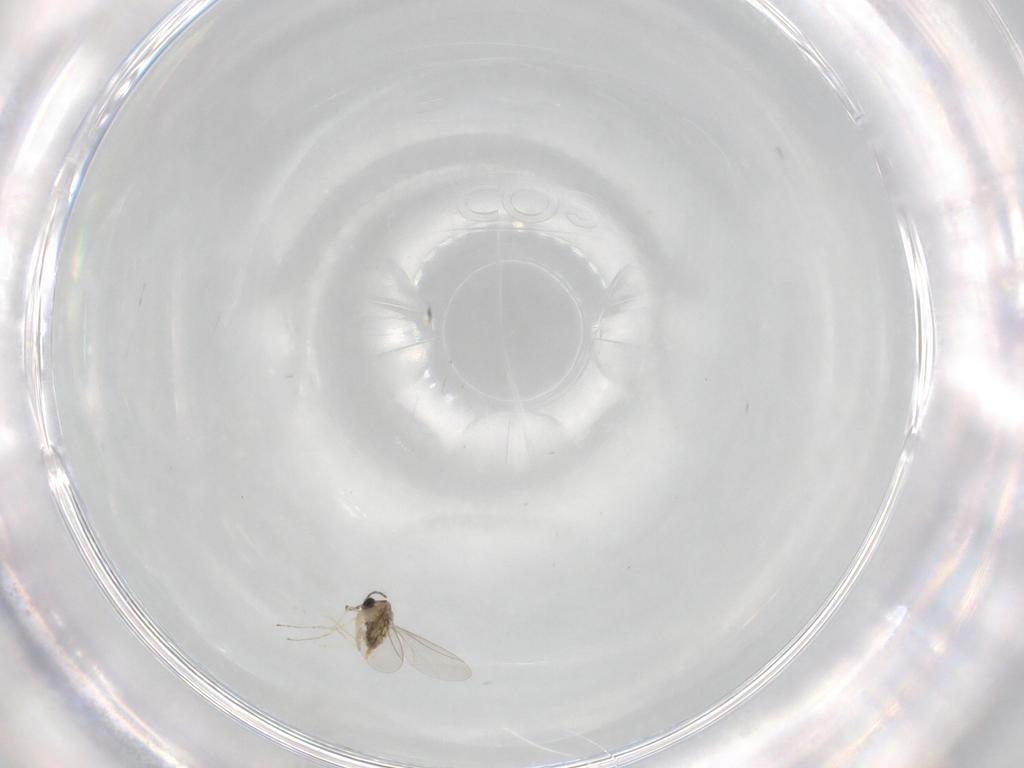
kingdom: Animalia
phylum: Arthropoda
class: Insecta
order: Diptera
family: Cecidomyiidae
